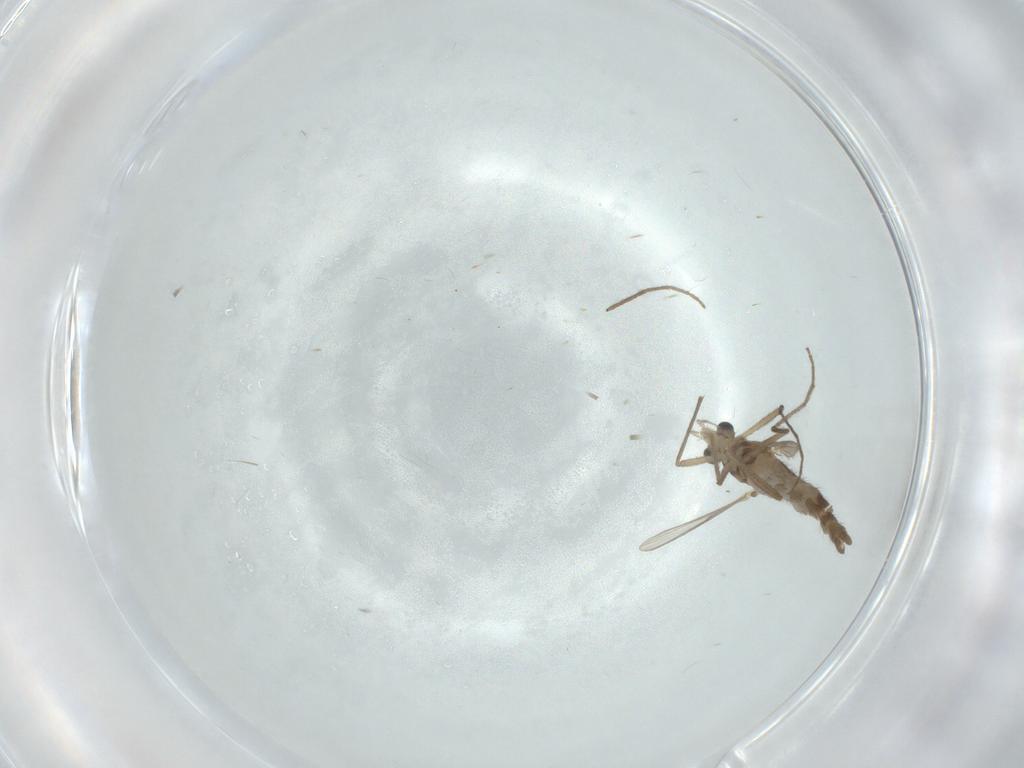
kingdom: Animalia
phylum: Arthropoda
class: Insecta
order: Diptera
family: Chironomidae
